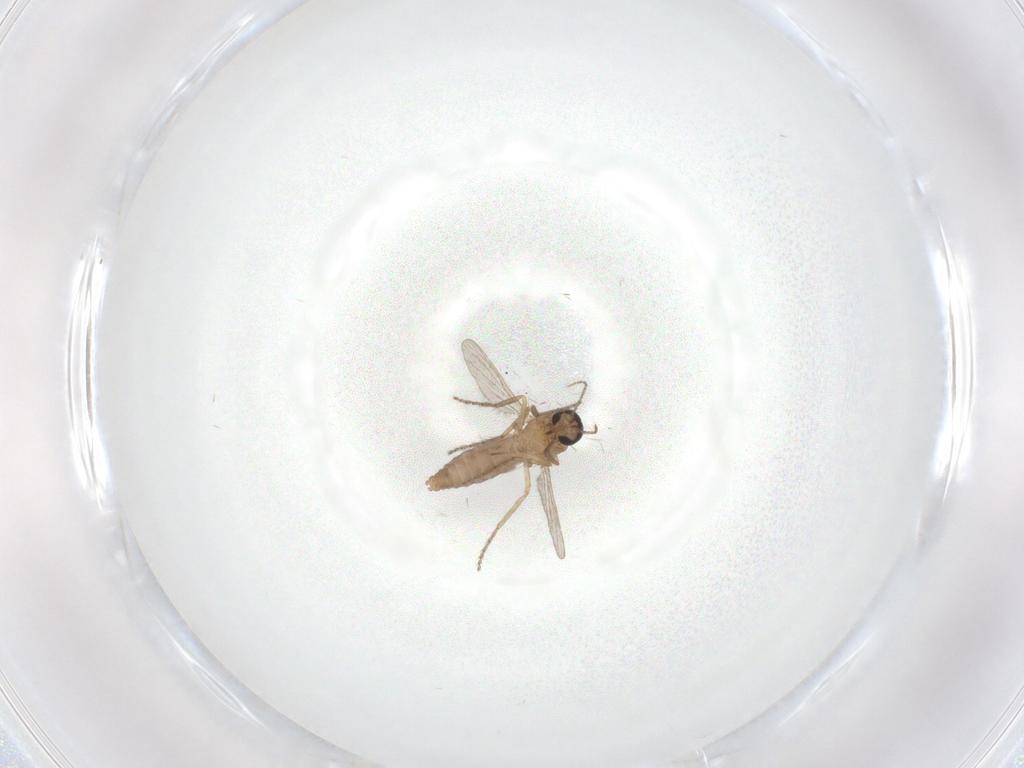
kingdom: Animalia
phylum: Arthropoda
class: Insecta
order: Diptera
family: Ceratopogonidae
